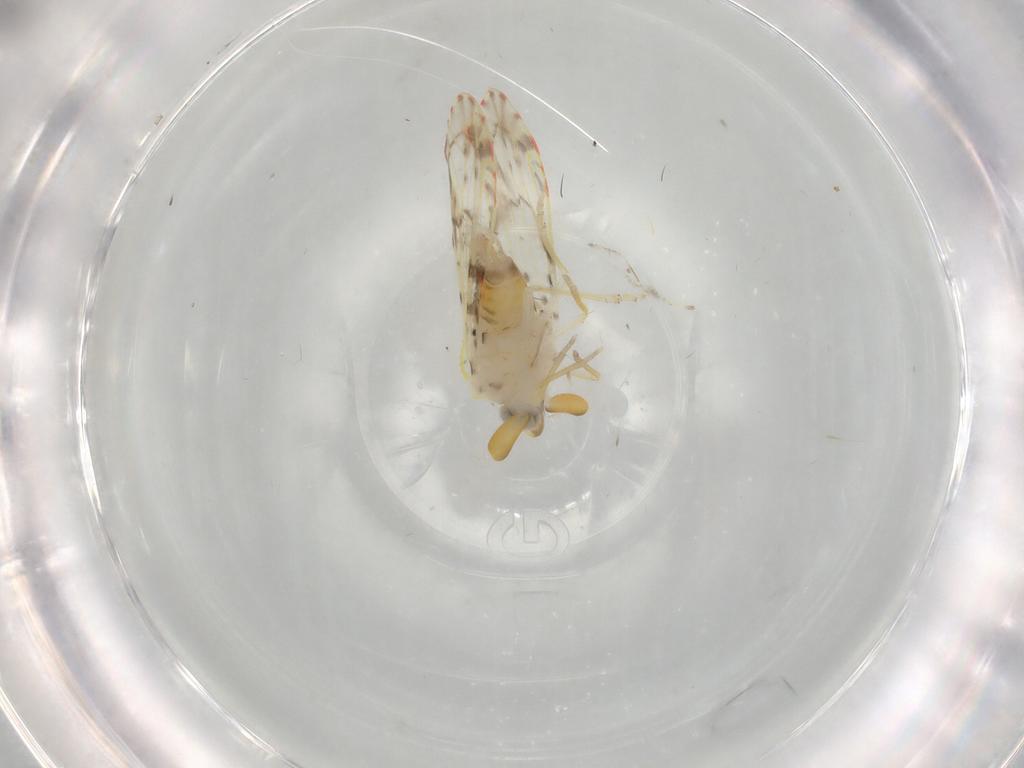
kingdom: Animalia
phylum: Arthropoda
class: Insecta
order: Hemiptera
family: Derbidae
